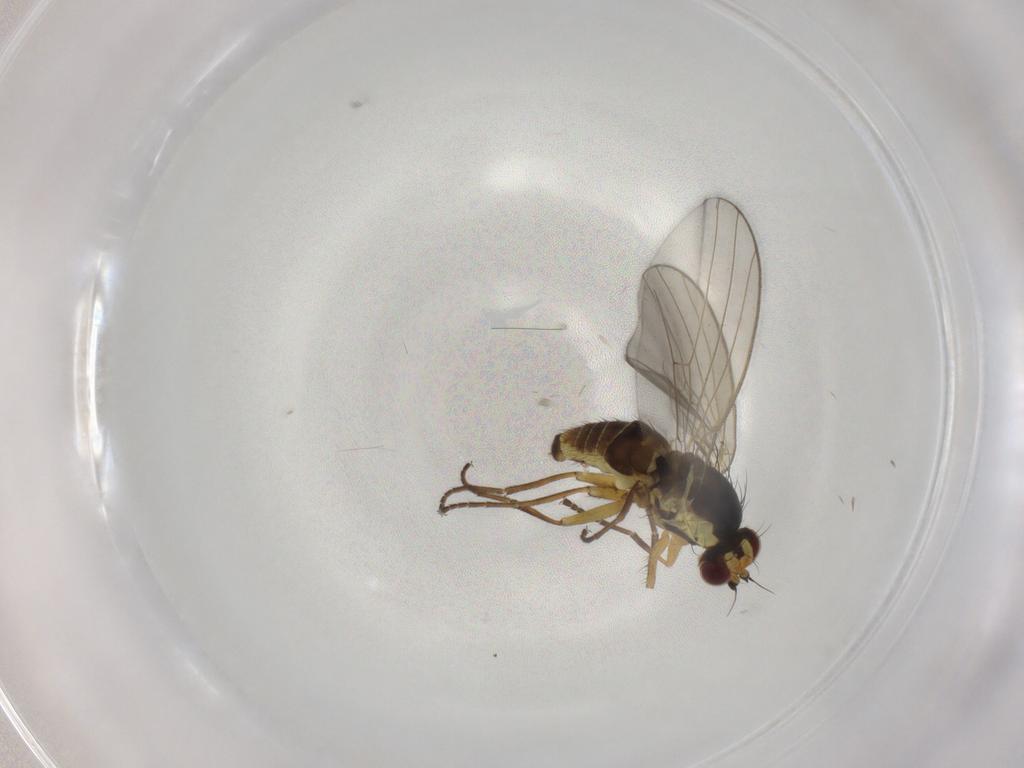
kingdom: Animalia
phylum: Arthropoda
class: Insecta
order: Diptera
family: Agromyzidae
